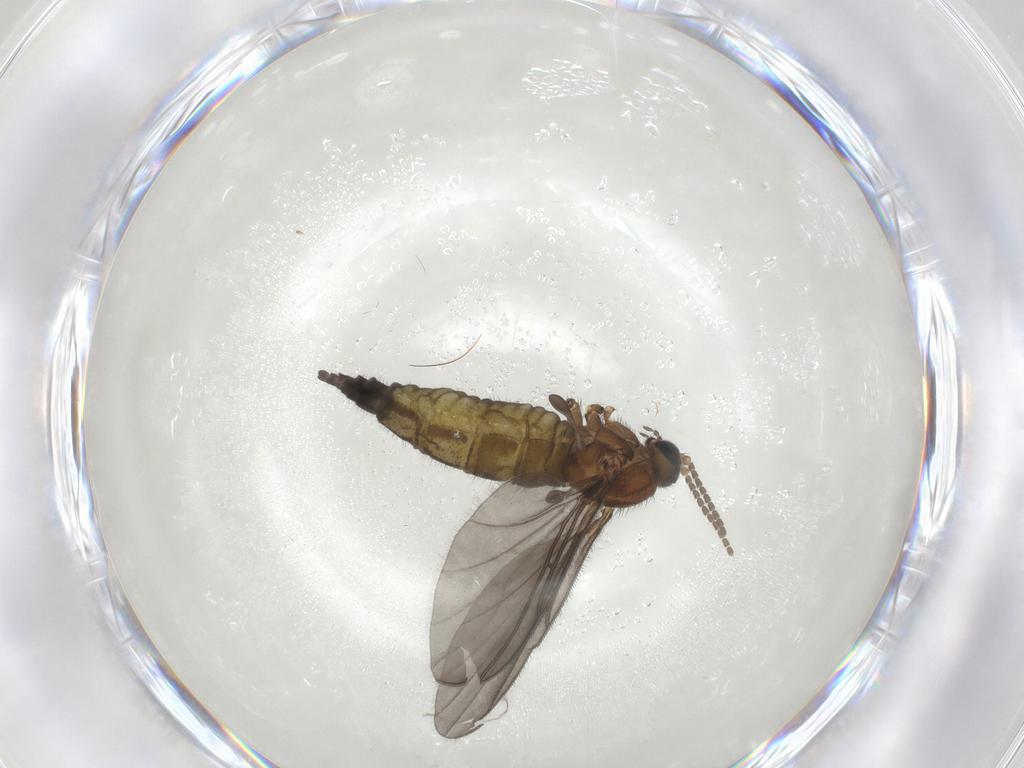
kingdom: Animalia
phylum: Arthropoda
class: Insecta
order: Diptera
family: Sciaridae
